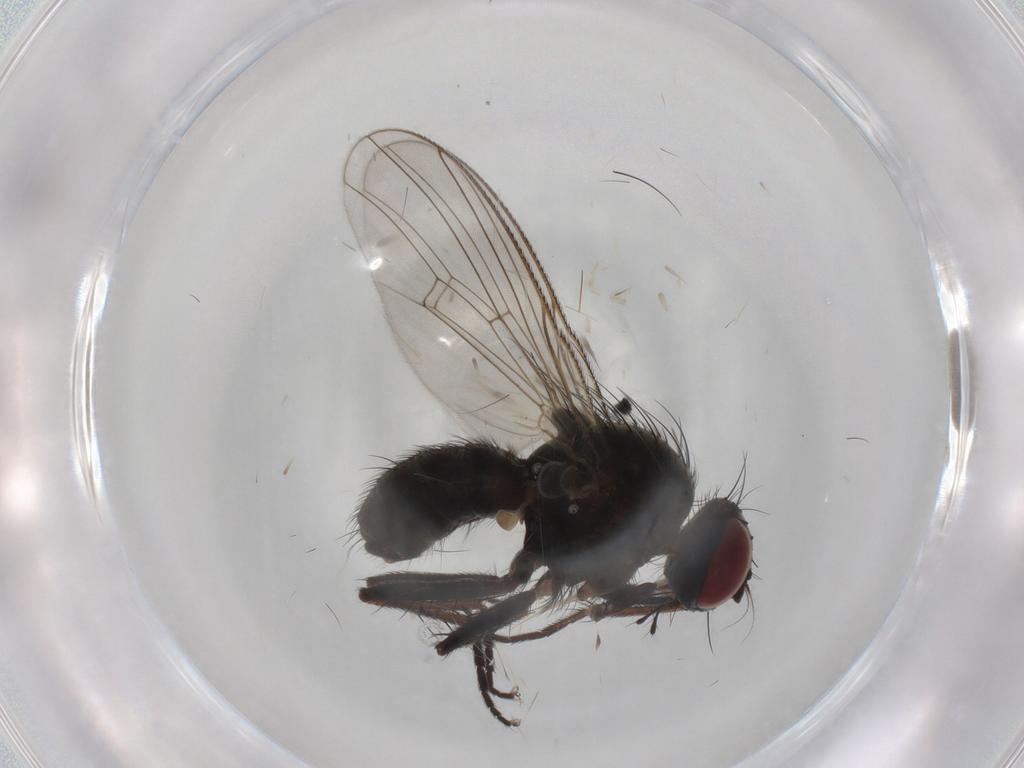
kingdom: Animalia
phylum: Arthropoda
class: Insecta
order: Diptera
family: Muscidae
